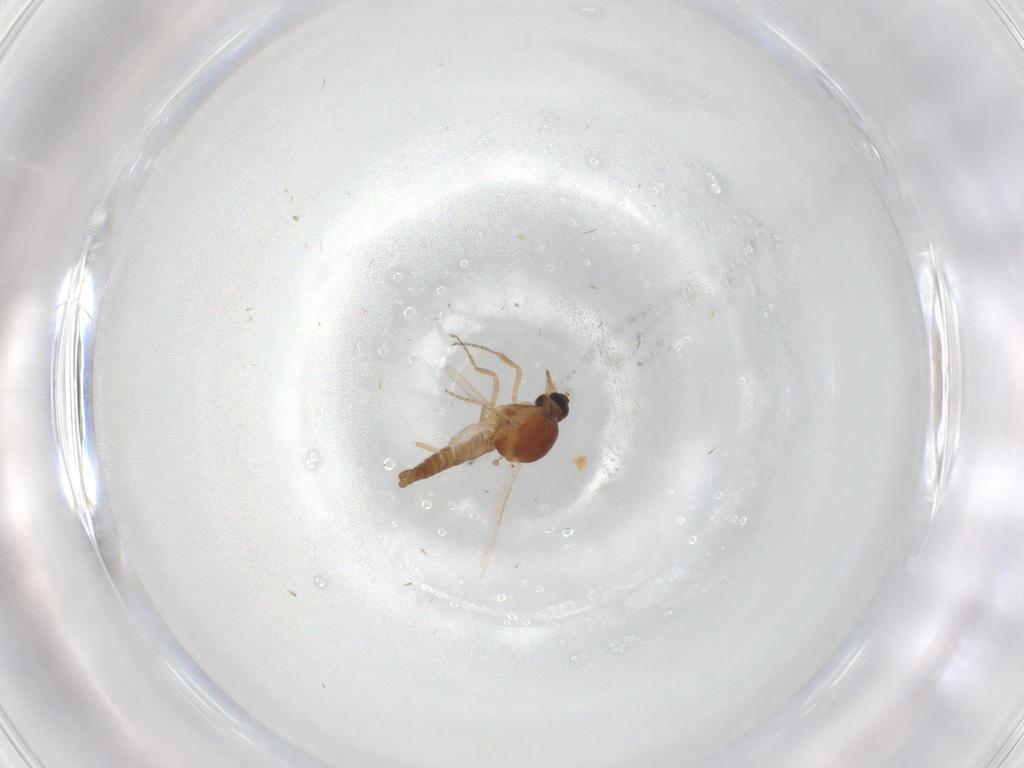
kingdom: Animalia
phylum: Arthropoda
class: Insecta
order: Diptera
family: Ceratopogonidae
